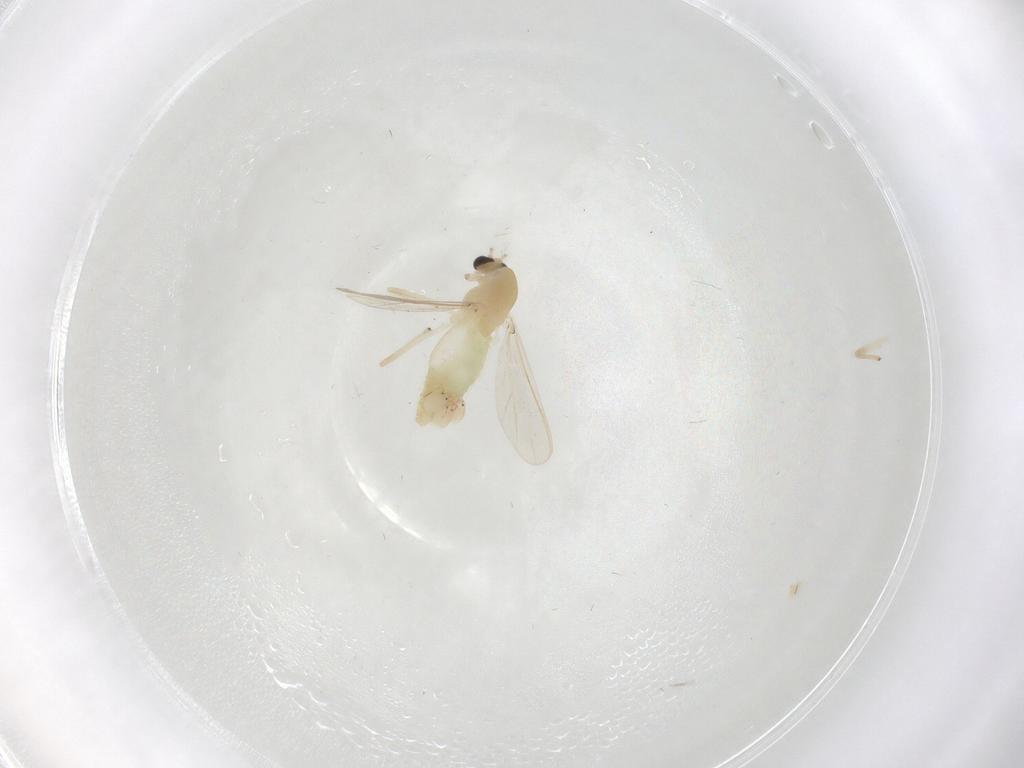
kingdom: Animalia
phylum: Arthropoda
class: Insecta
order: Diptera
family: Chironomidae
